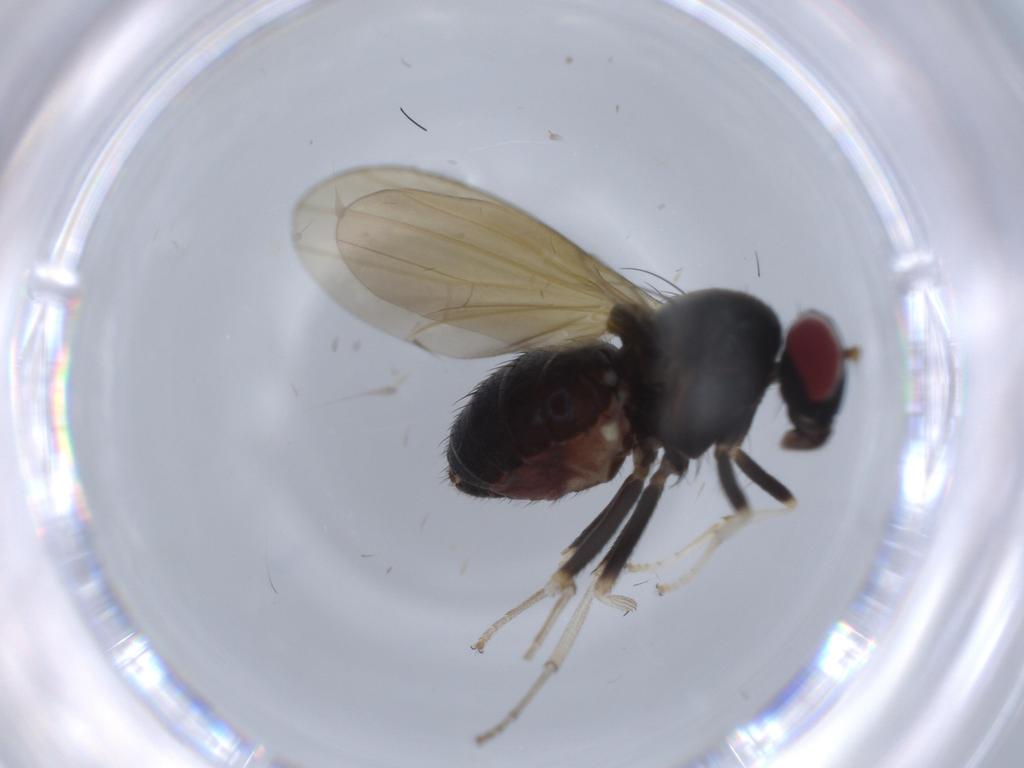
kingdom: Animalia
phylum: Arthropoda
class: Insecta
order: Diptera
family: Lauxaniidae
